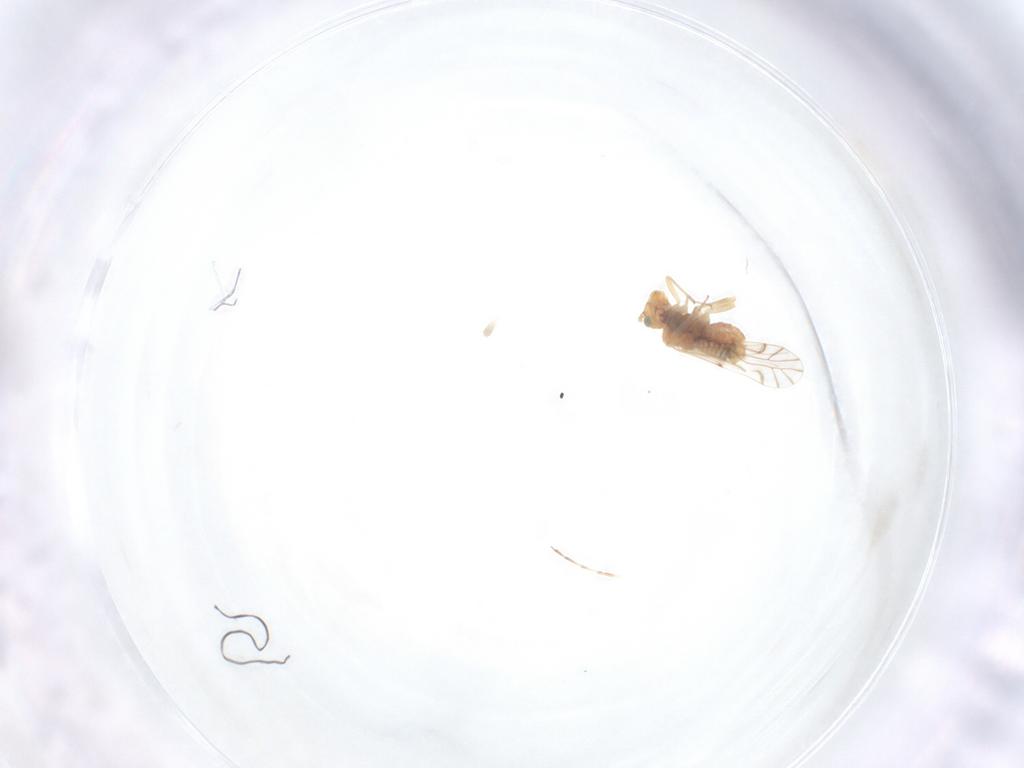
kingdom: Animalia
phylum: Arthropoda
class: Insecta
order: Psocodea
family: Lachesillidae
